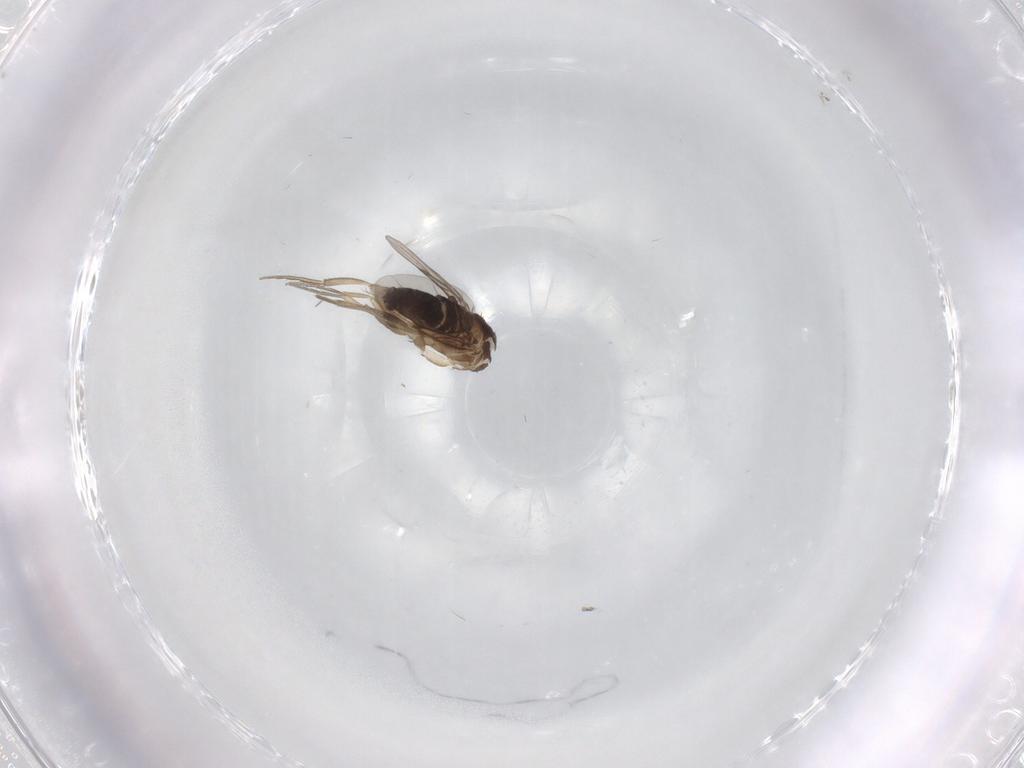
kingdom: Animalia
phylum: Arthropoda
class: Insecta
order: Diptera
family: Phoridae
